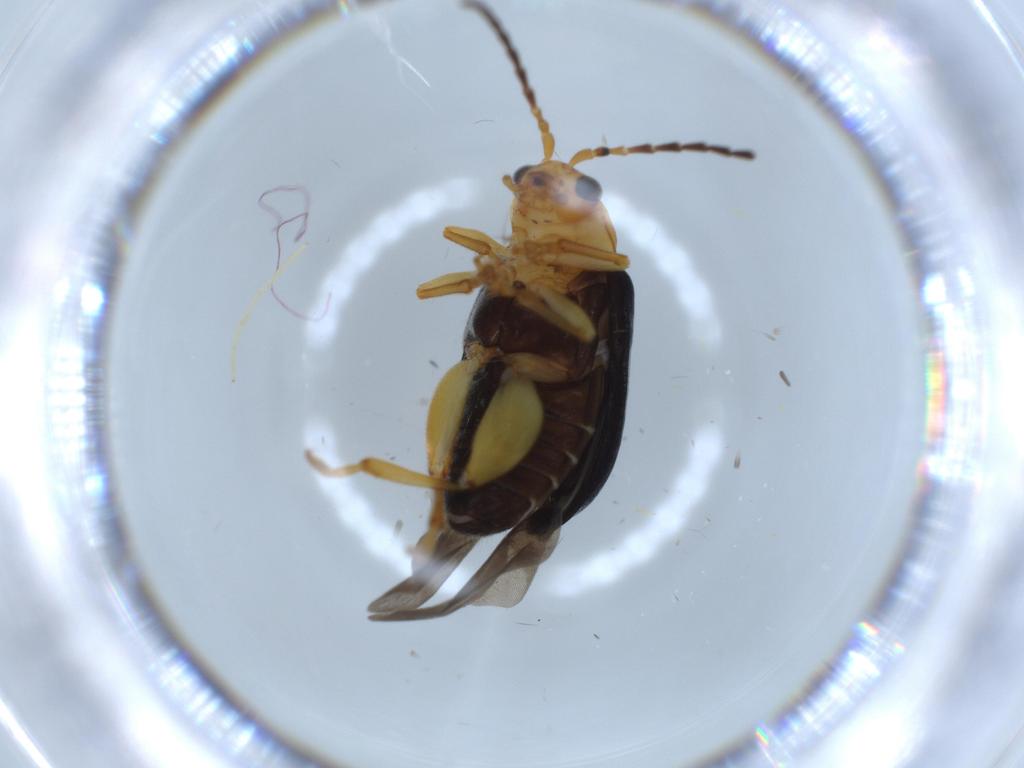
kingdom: Animalia
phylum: Arthropoda
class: Insecta
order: Coleoptera
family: Chrysomelidae
